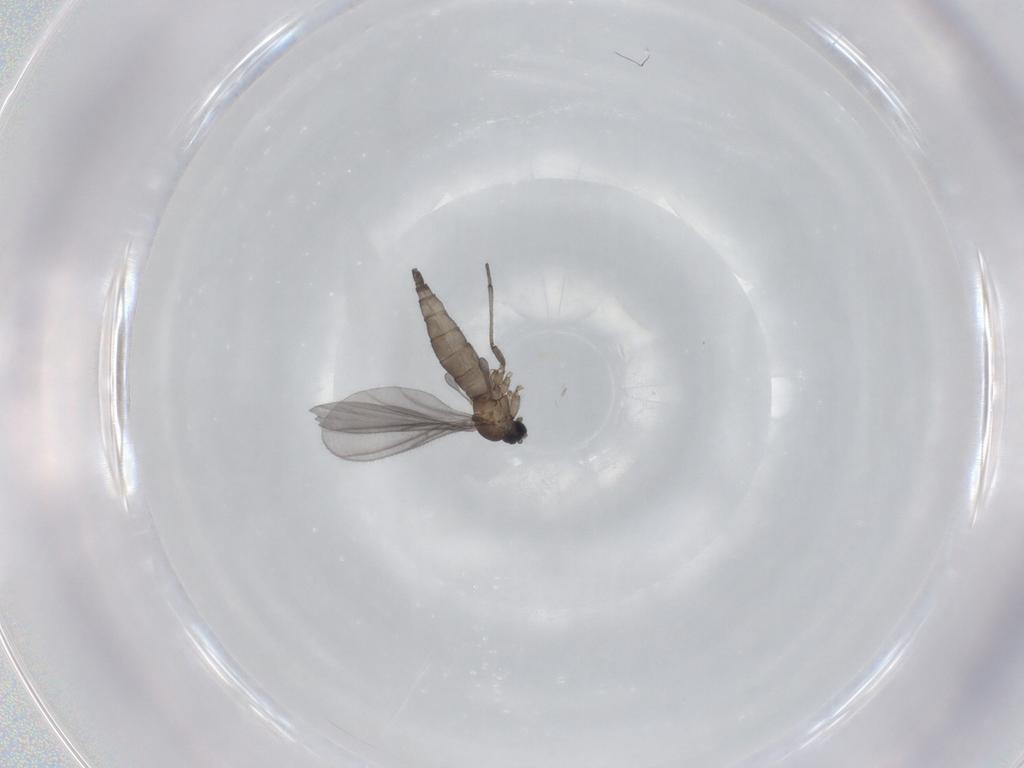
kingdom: Animalia
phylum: Arthropoda
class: Insecta
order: Diptera
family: Sciaridae
